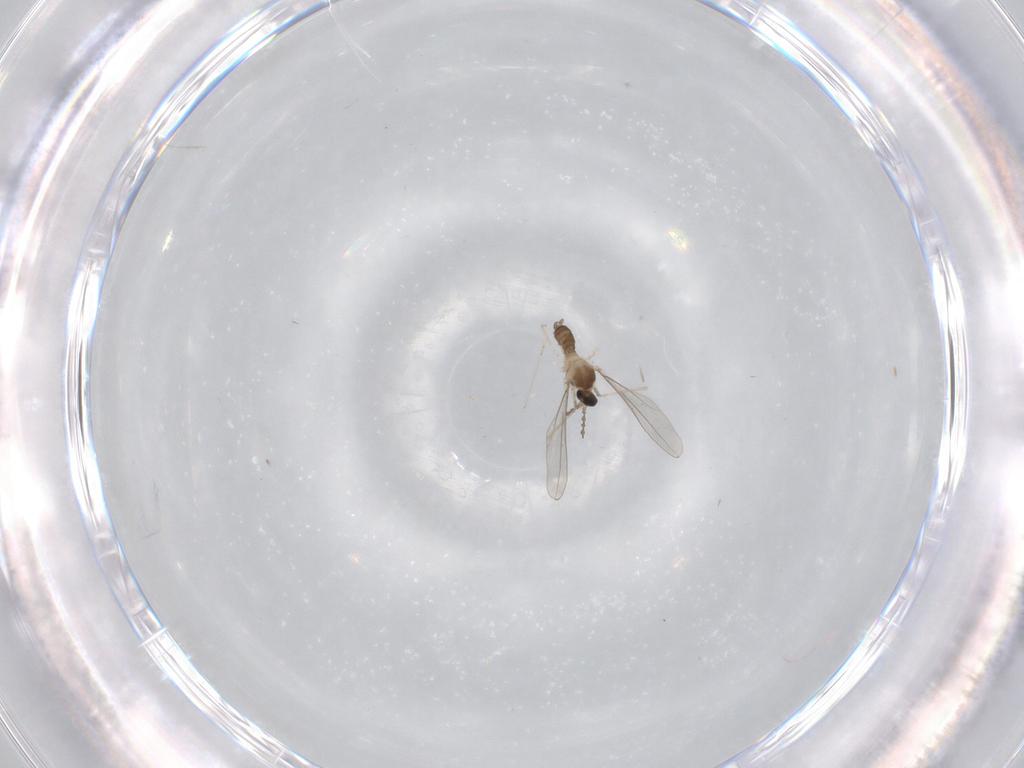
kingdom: Animalia
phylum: Arthropoda
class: Insecta
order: Diptera
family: Cecidomyiidae
